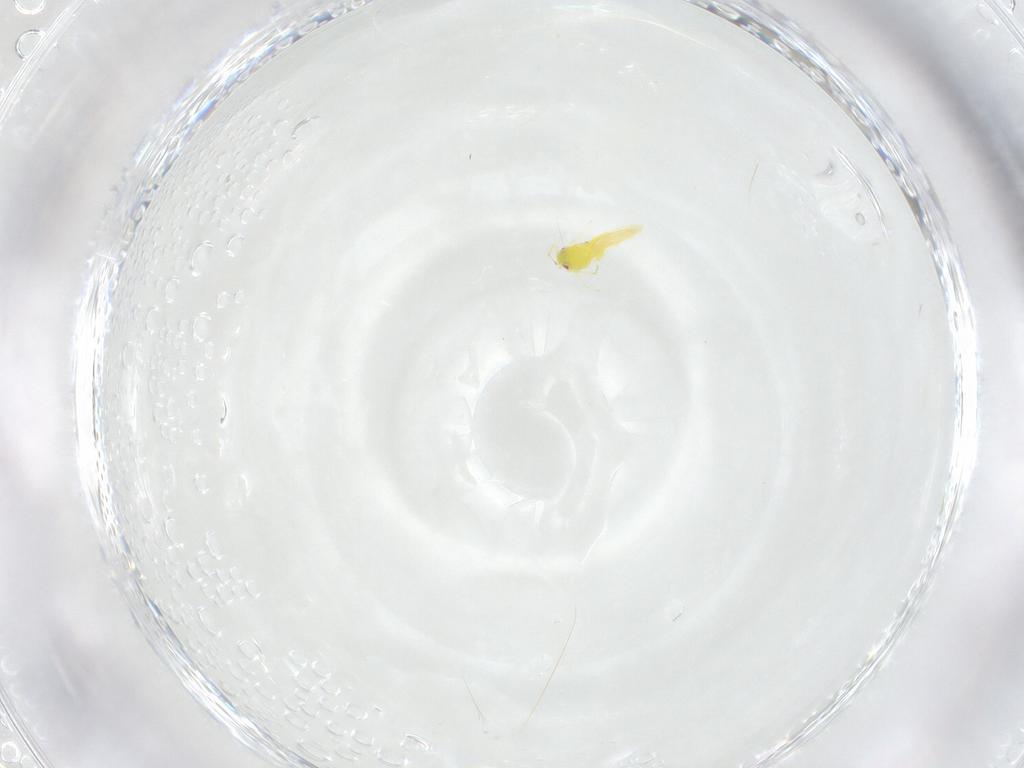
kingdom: Animalia
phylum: Arthropoda
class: Insecta
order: Hemiptera
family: Aleyrodidae
